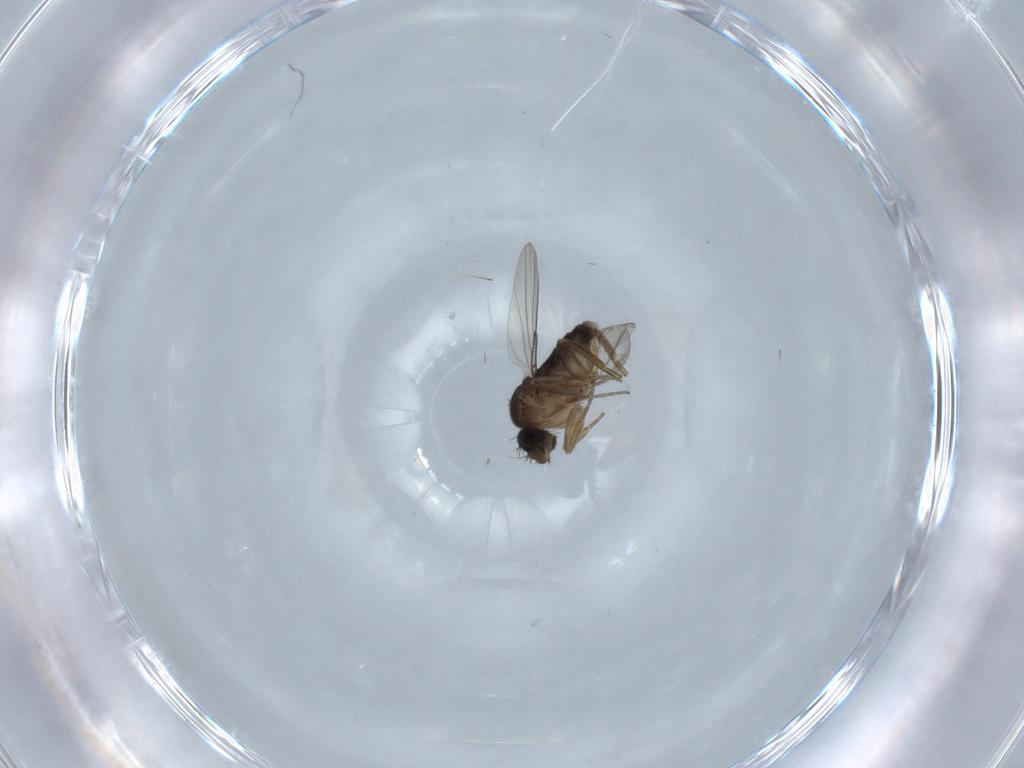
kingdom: Animalia
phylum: Arthropoda
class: Insecta
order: Diptera
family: Phoridae
